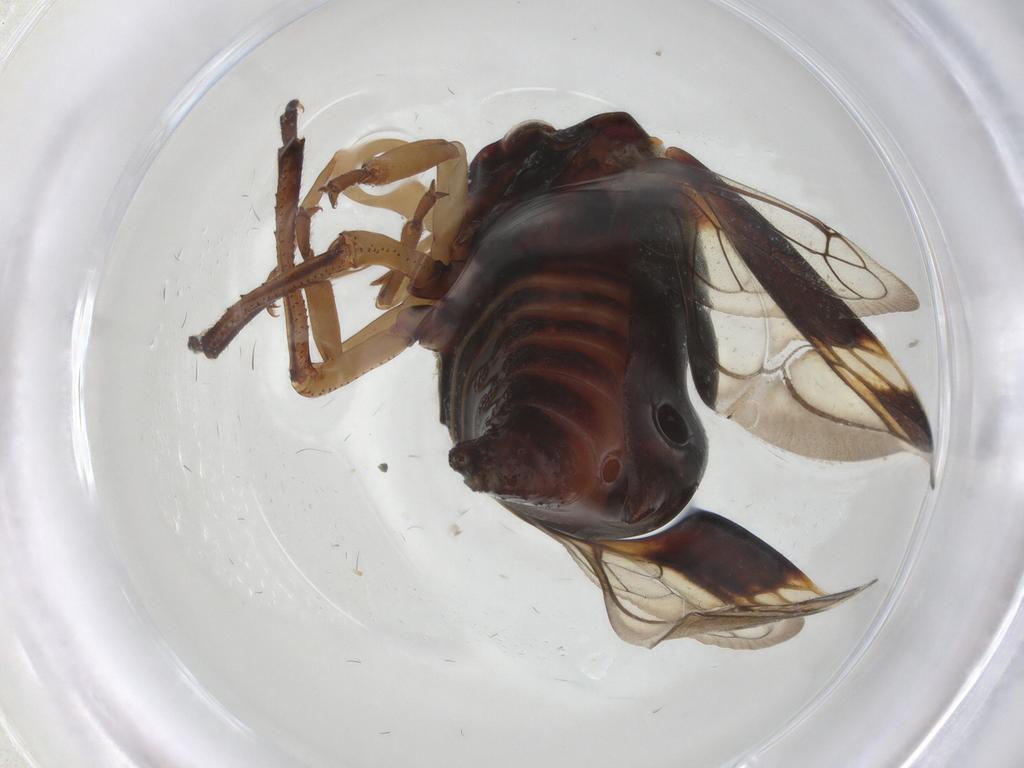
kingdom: Animalia
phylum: Arthropoda
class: Insecta
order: Hemiptera
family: Membracidae
